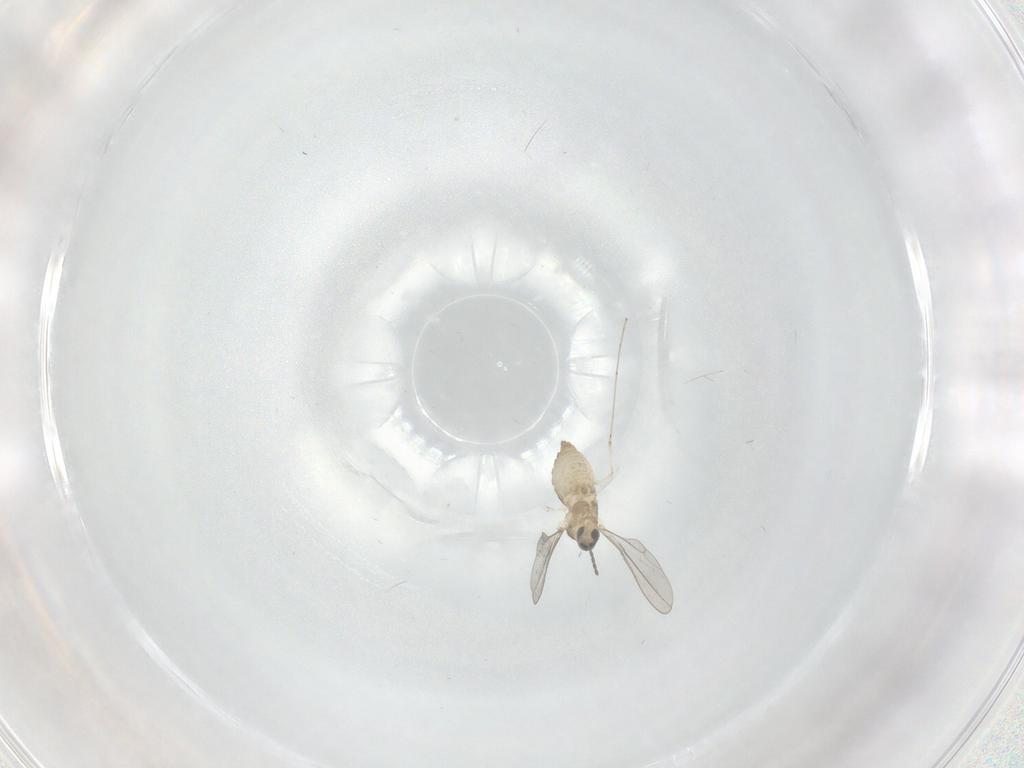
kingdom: Animalia
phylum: Arthropoda
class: Insecta
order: Diptera
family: Cecidomyiidae
